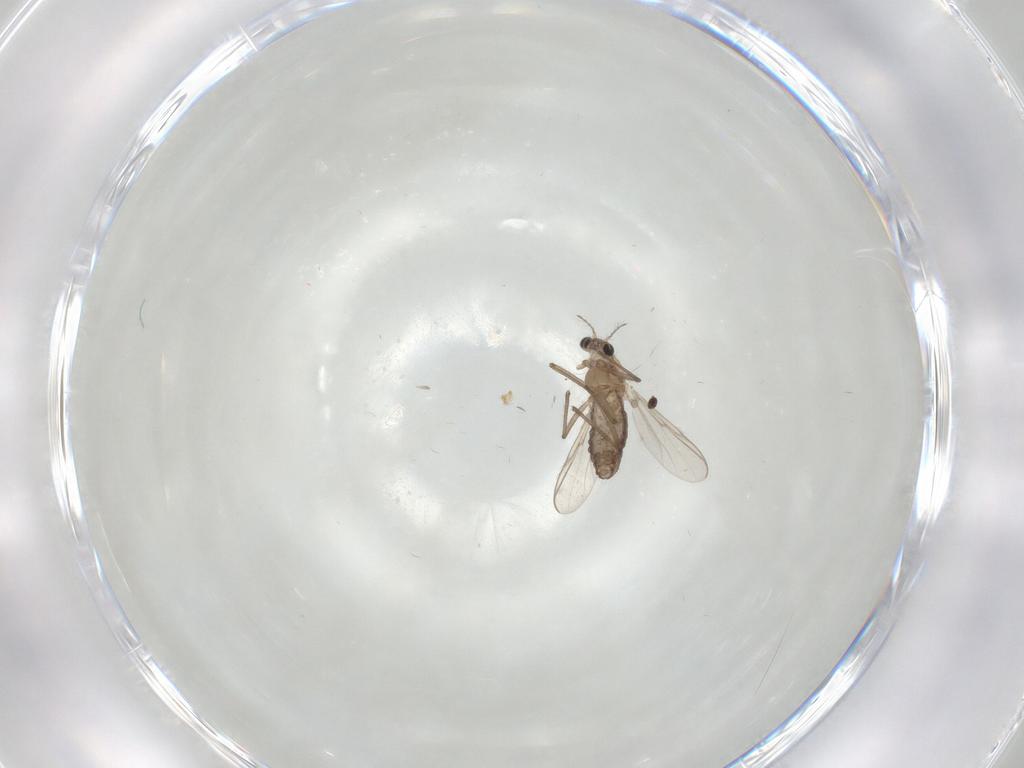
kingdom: Animalia
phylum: Arthropoda
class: Insecta
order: Diptera
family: Chironomidae
